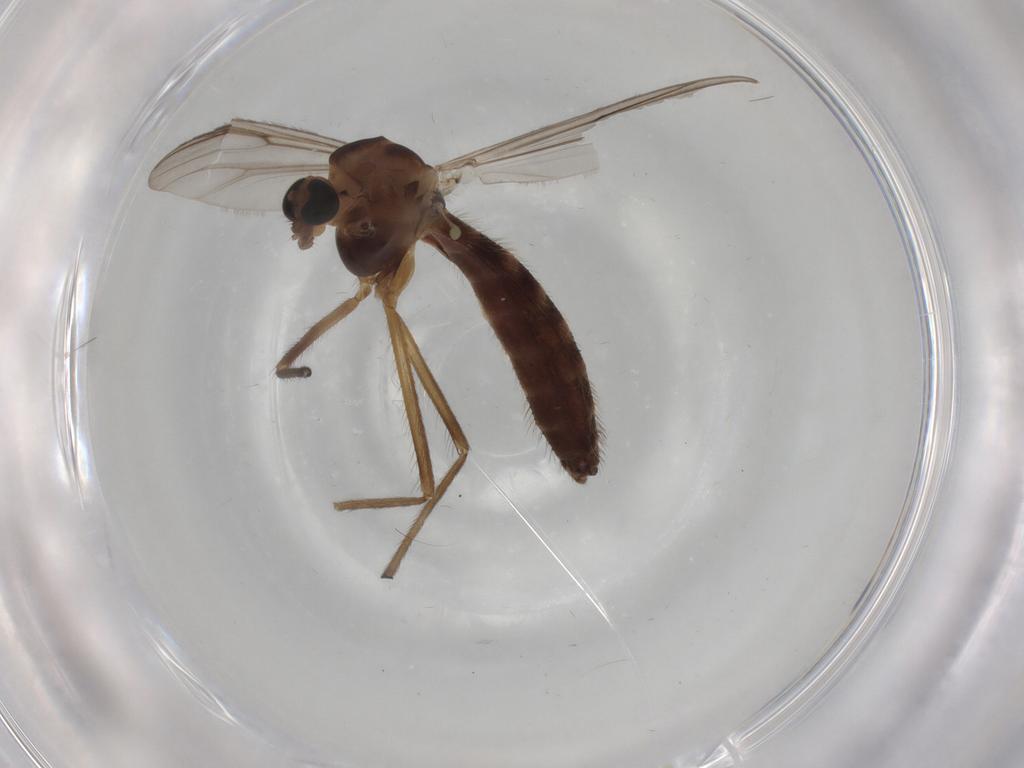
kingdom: Animalia
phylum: Arthropoda
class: Insecta
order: Diptera
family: Chironomidae
